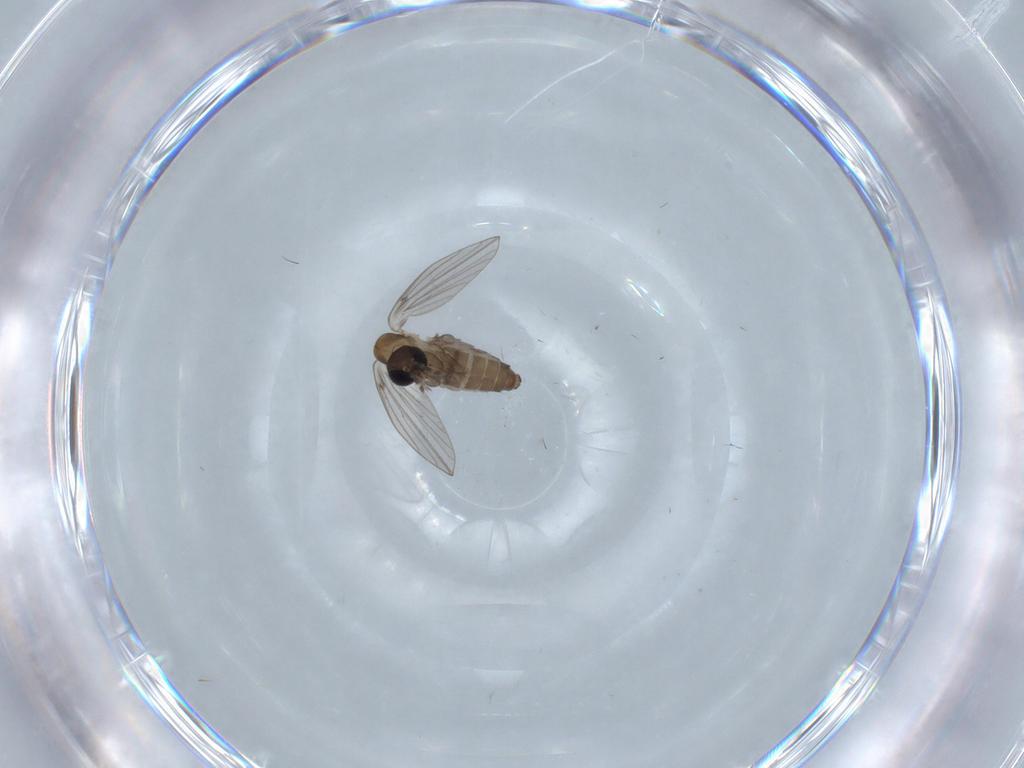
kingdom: Animalia
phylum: Arthropoda
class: Insecta
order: Diptera
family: Psychodidae
